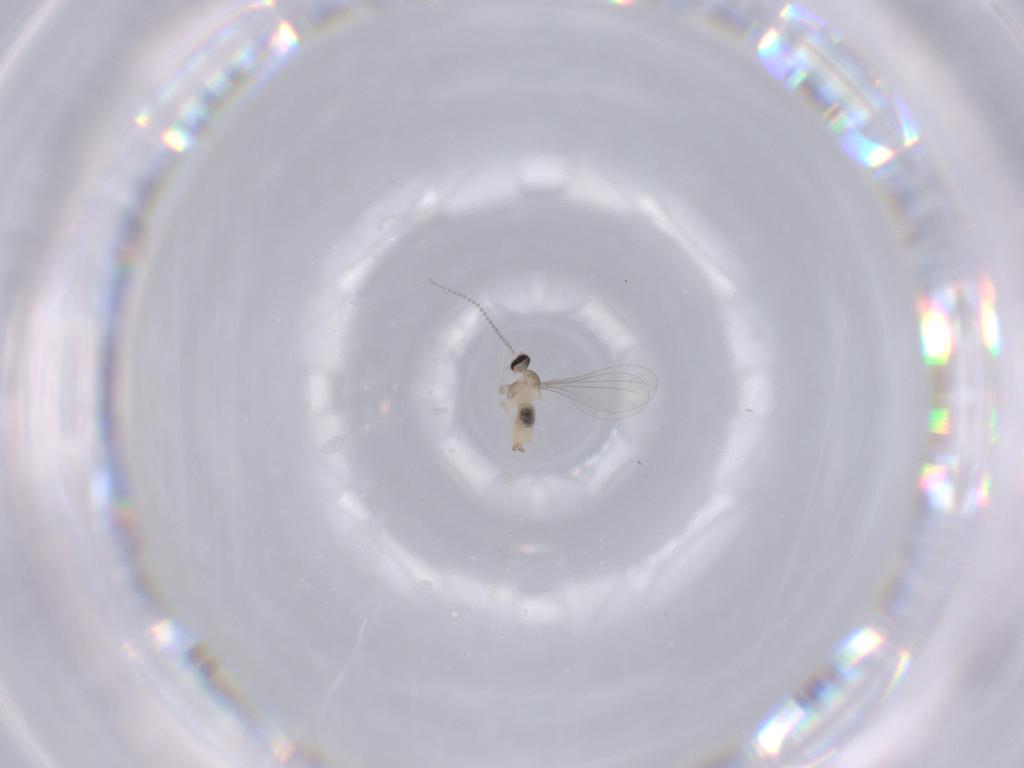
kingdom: Animalia
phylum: Arthropoda
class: Insecta
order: Diptera
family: Cecidomyiidae
